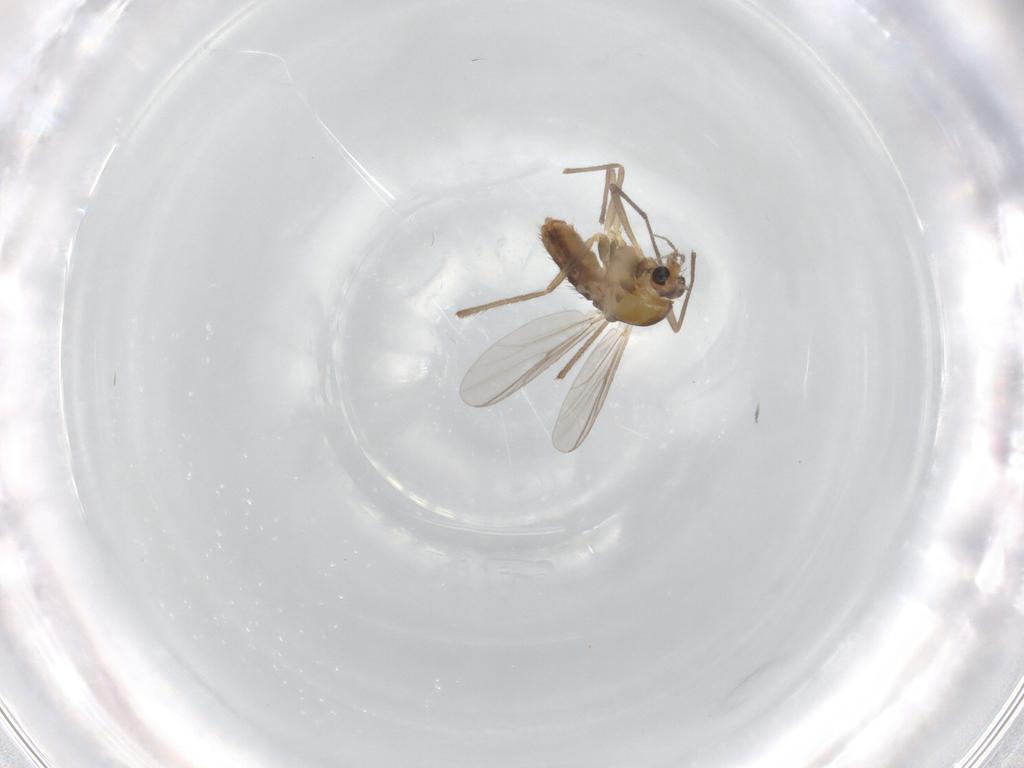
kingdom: Animalia
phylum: Arthropoda
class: Insecta
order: Diptera
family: Chironomidae
